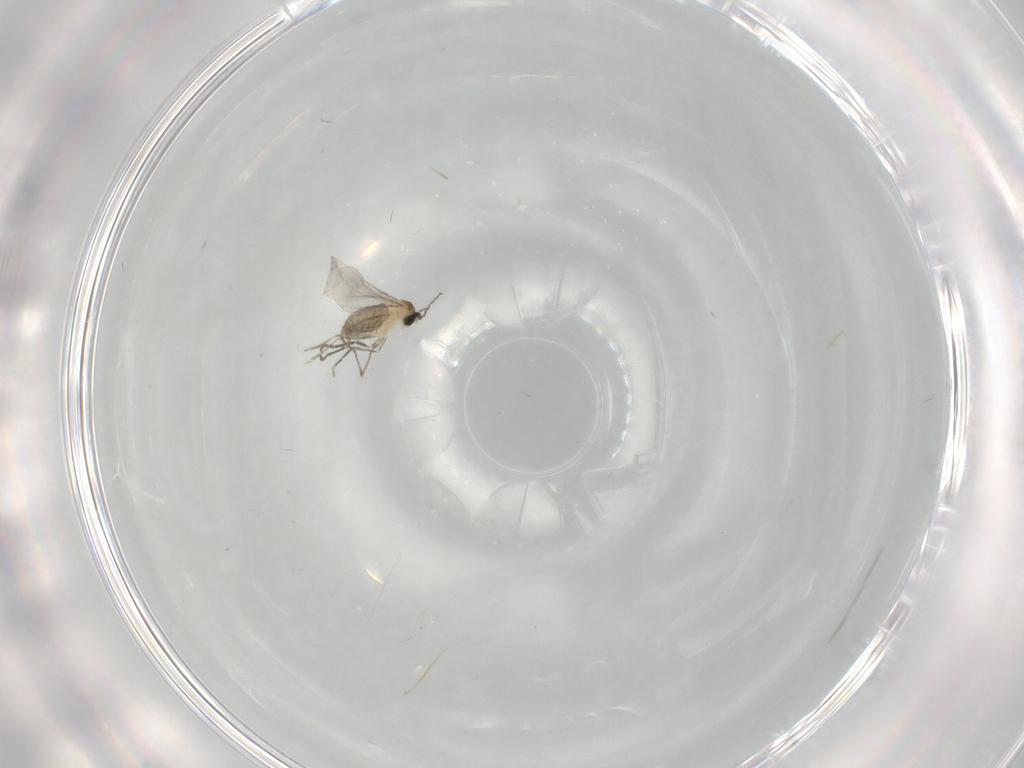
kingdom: Animalia
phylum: Arthropoda
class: Insecta
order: Diptera
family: Cecidomyiidae
